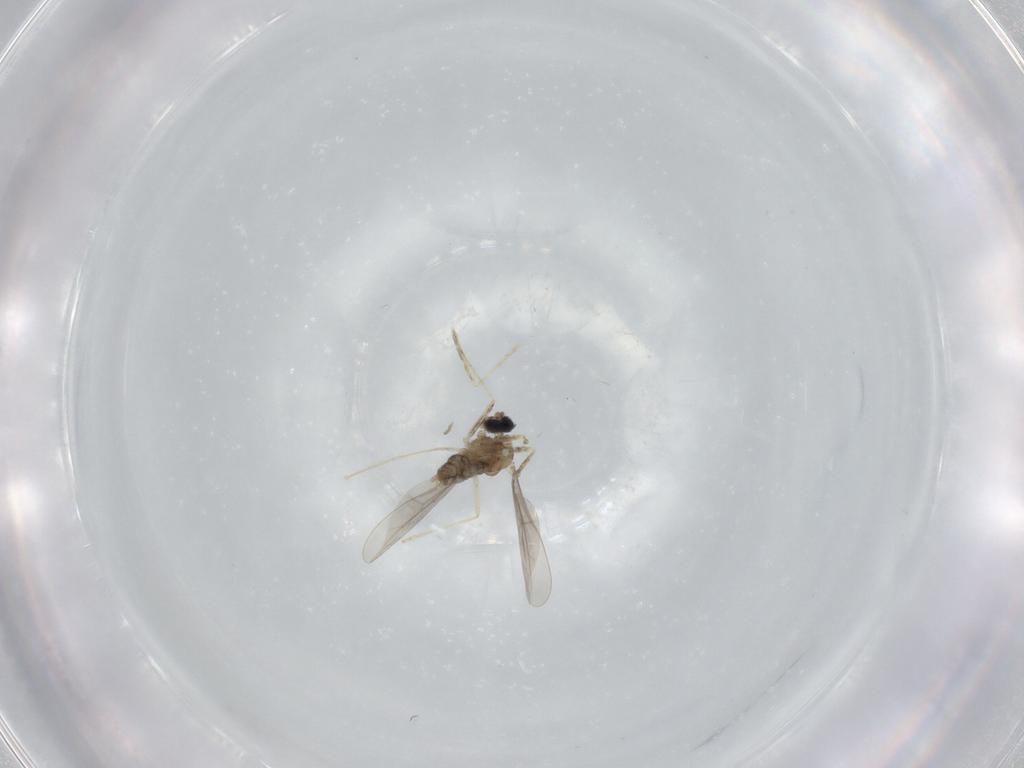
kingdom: Animalia
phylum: Arthropoda
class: Insecta
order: Diptera
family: Cecidomyiidae
